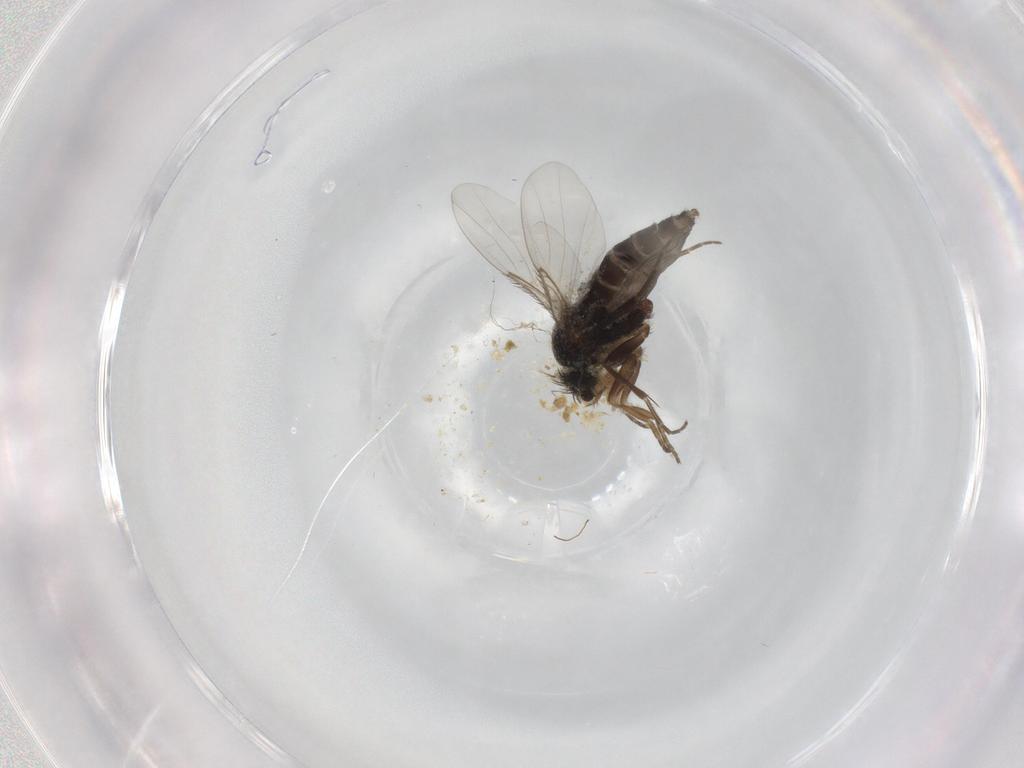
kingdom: Animalia
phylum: Arthropoda
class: Insecta
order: Diptera
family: Phoridae
